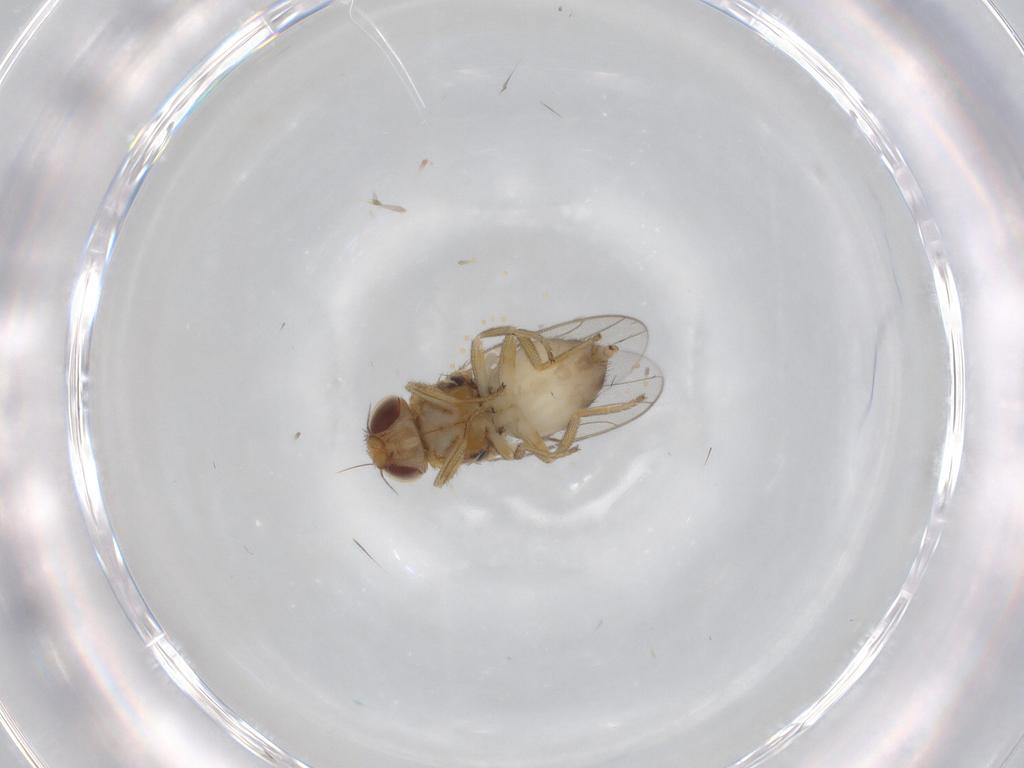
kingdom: Animalia
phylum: Arthropoda
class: Insecta
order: Diptera
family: Chloropidae
